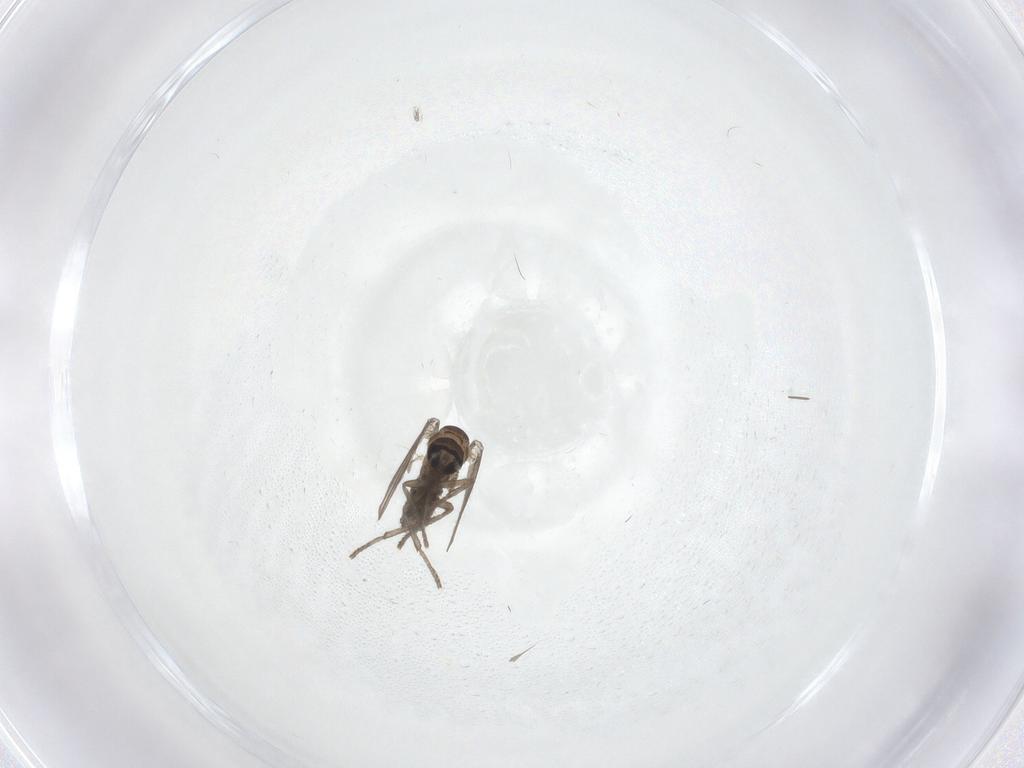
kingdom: Animalia
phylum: Arthropoda
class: Insecta
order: Diptera
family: Psychodidae
